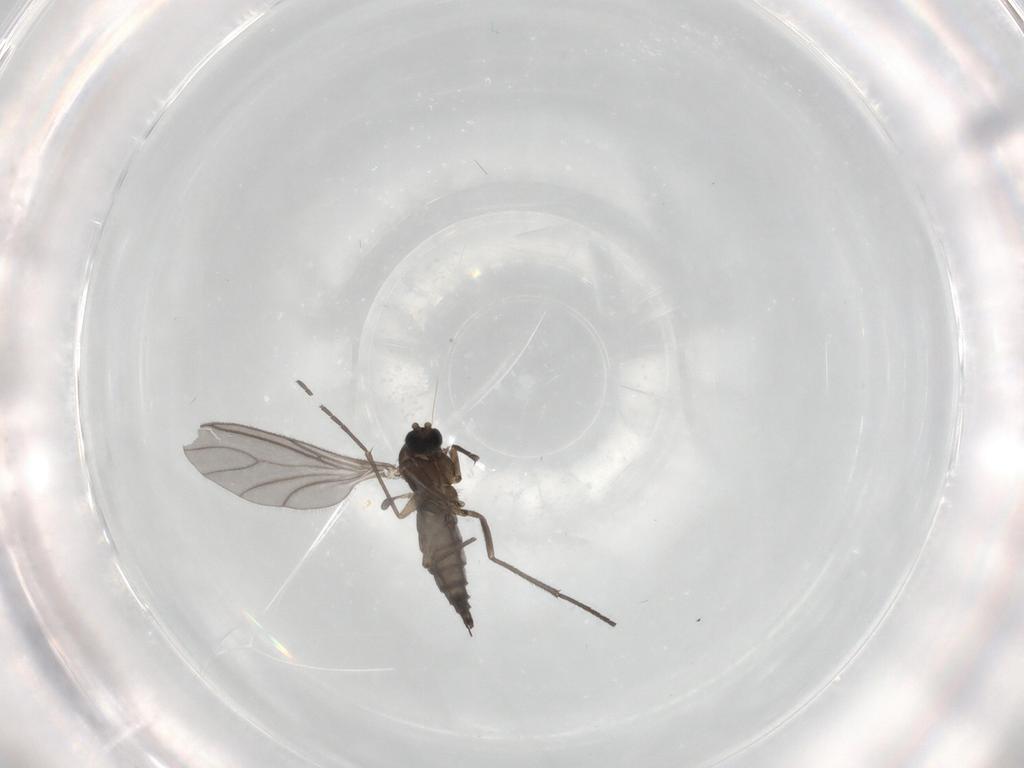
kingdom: Animalia
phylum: Arthropoda
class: Insecta
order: Diptera
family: Sciaridae
